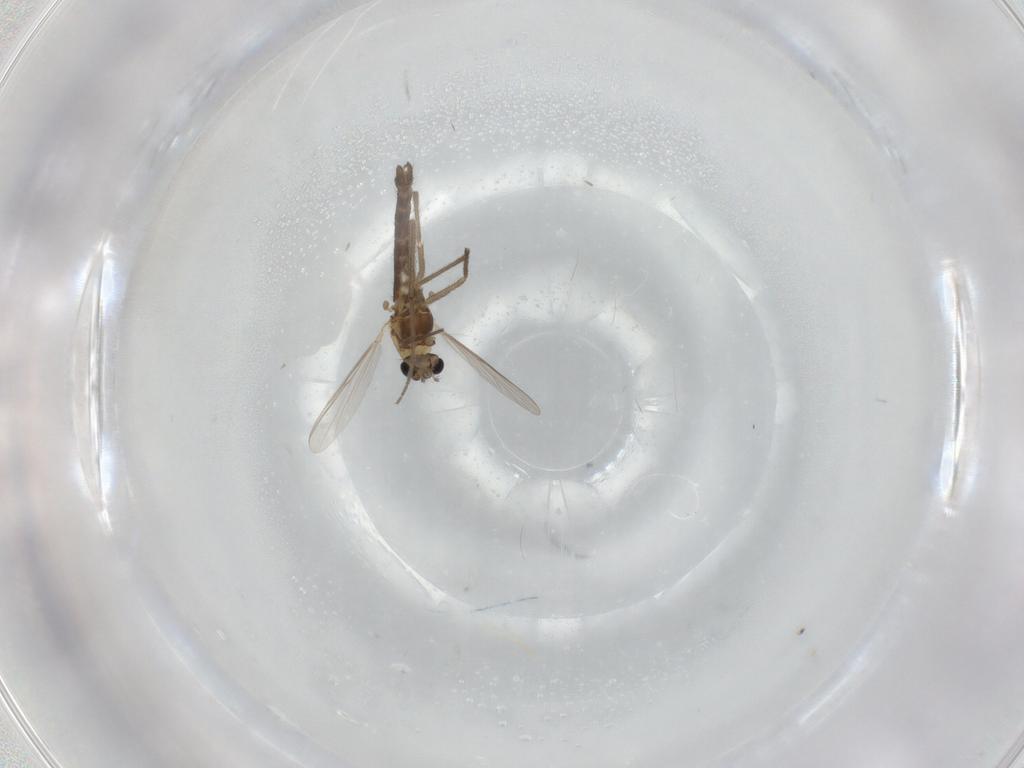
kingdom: Animalia
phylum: Arthropoda
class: Insecta
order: Diptera
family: Chironomidae
